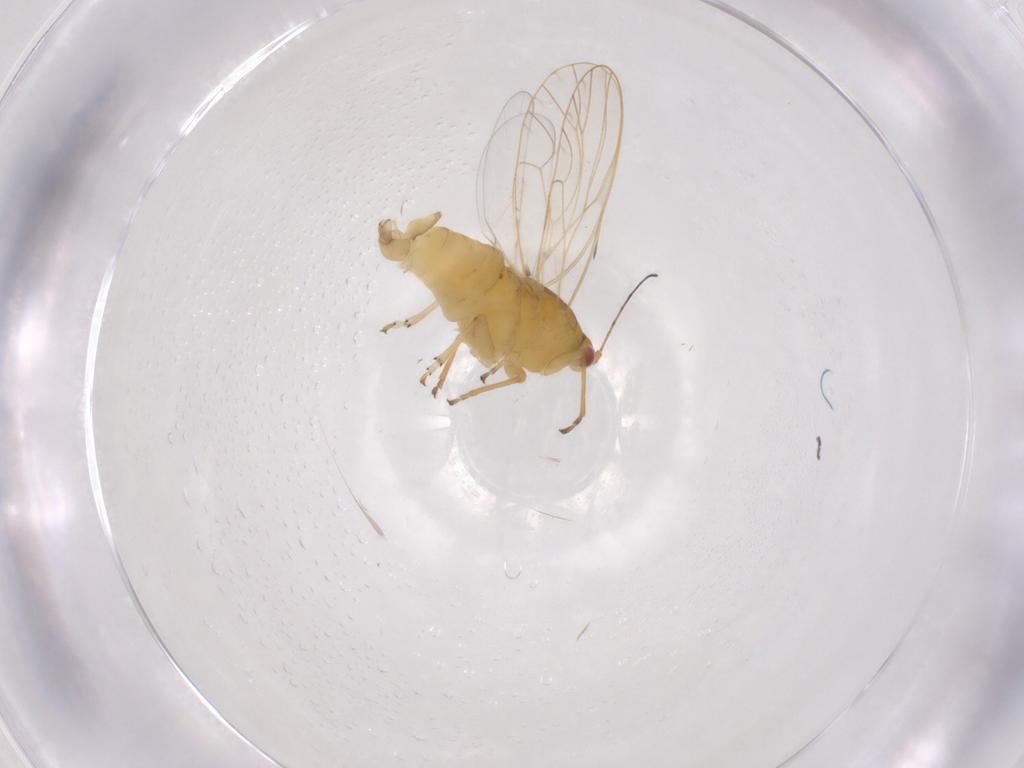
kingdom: Animalia
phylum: Arthropoda
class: Insecta
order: Hemiptera
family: Psyllidae
